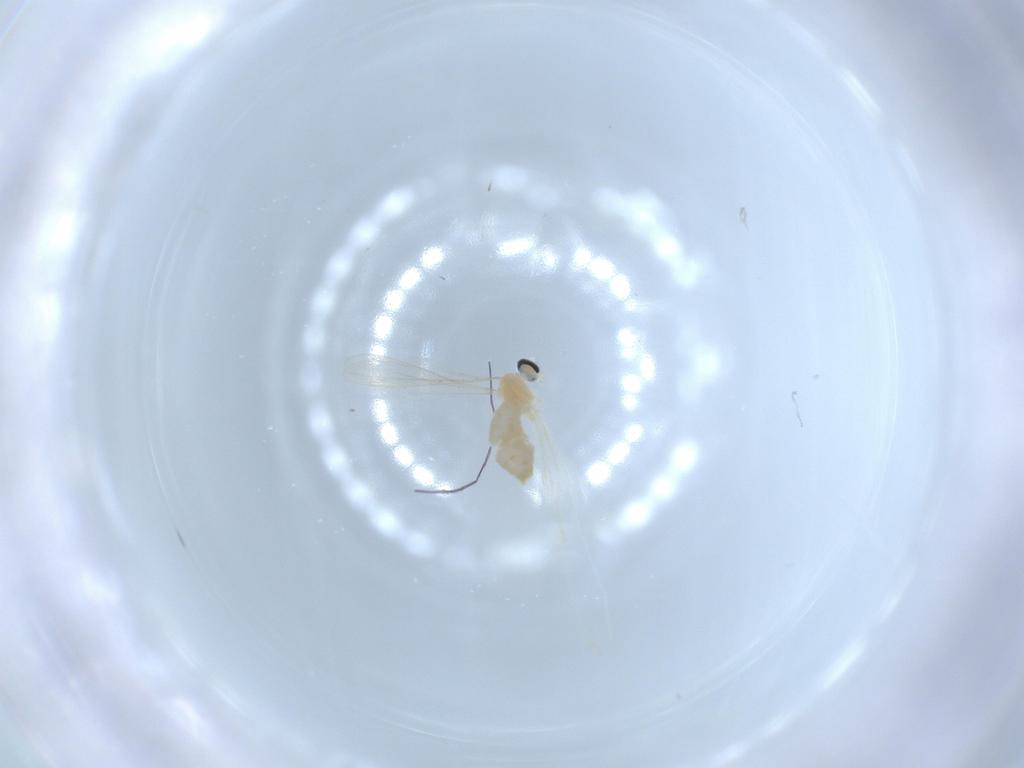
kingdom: Animalia
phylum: Arthropoda
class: Insecta
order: Diptera
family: Cecidomyiidae
